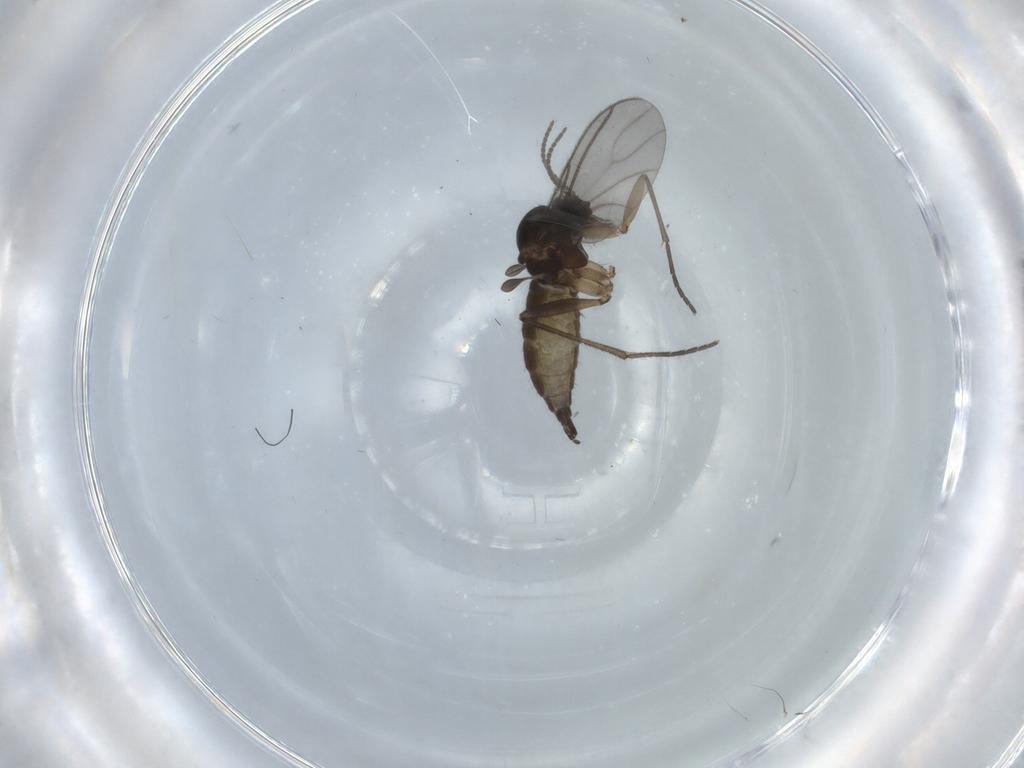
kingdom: Animalia
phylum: Arthropoda
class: Insecta
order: Diptera
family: Sciaridae
